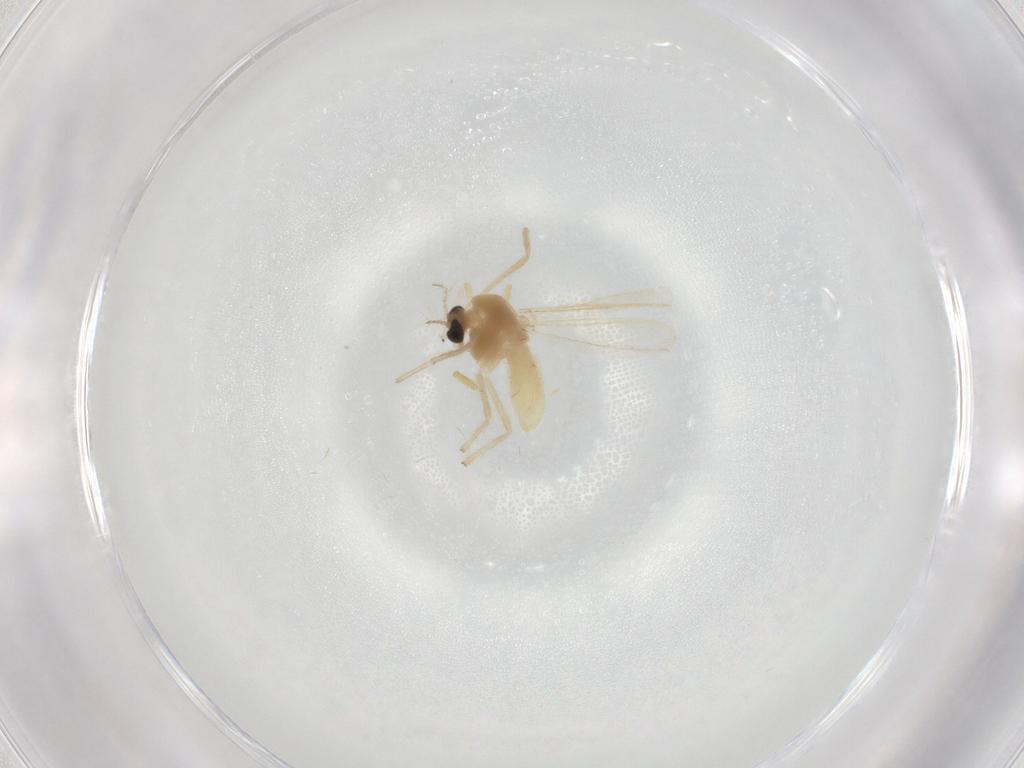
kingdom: Animalia
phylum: Arthropoda
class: Insecta
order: Diptera
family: Chironomidae
